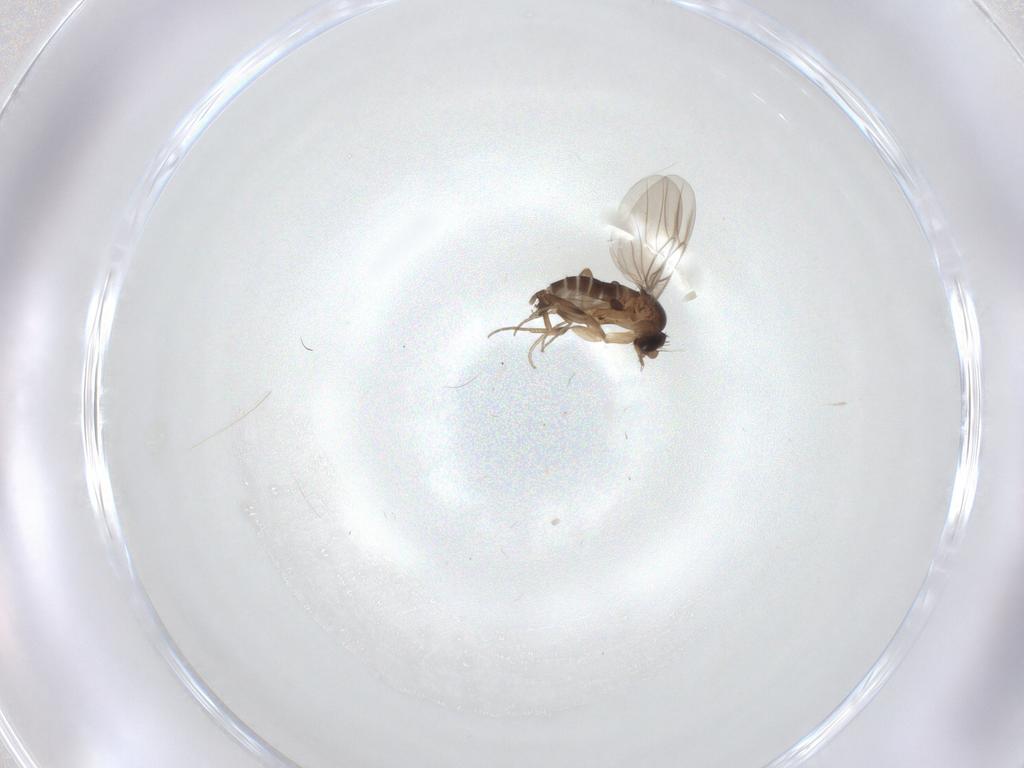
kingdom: Animalia
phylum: Arthropoda
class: Insecta
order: Diptera
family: Phoridae
